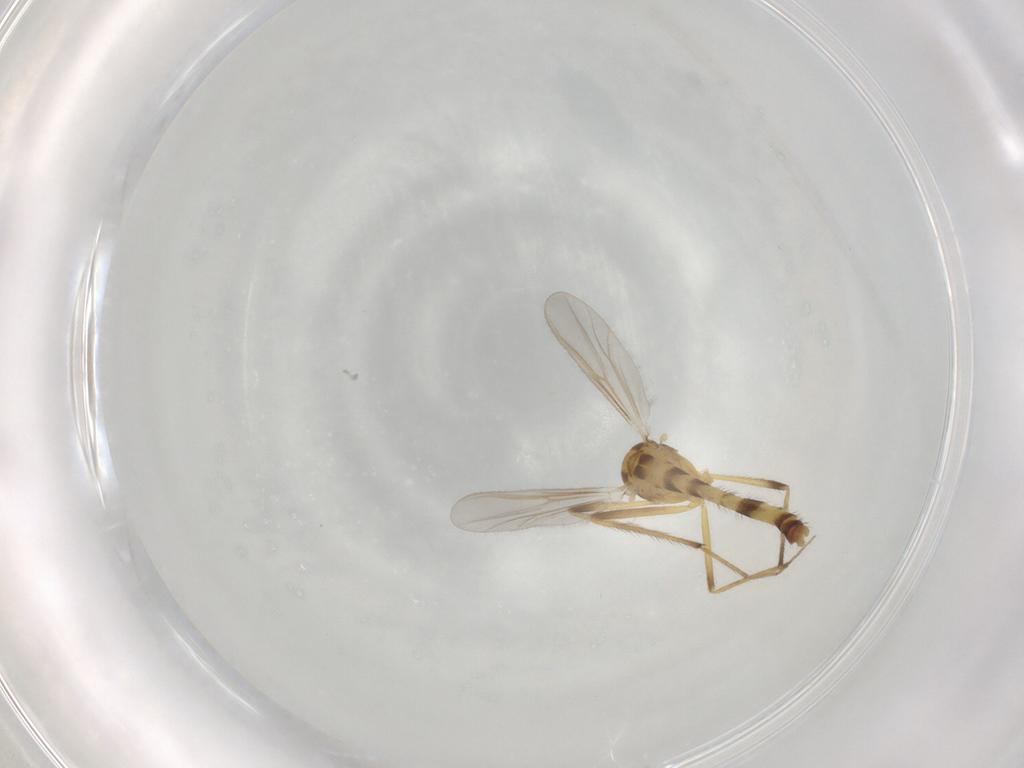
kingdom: Animalia
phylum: Arthropoda
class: Insecta
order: Diptera
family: Chironomidae
